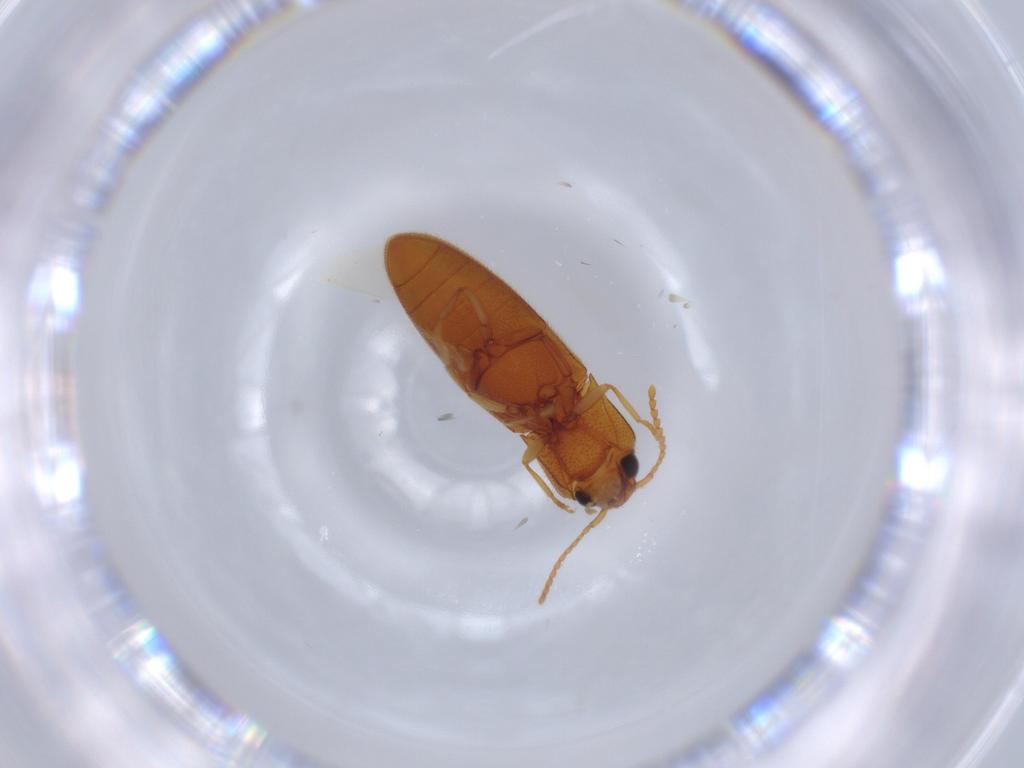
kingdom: Animalia
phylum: Arthropoda
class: Insecta
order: Coleoptera
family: Elateridae
